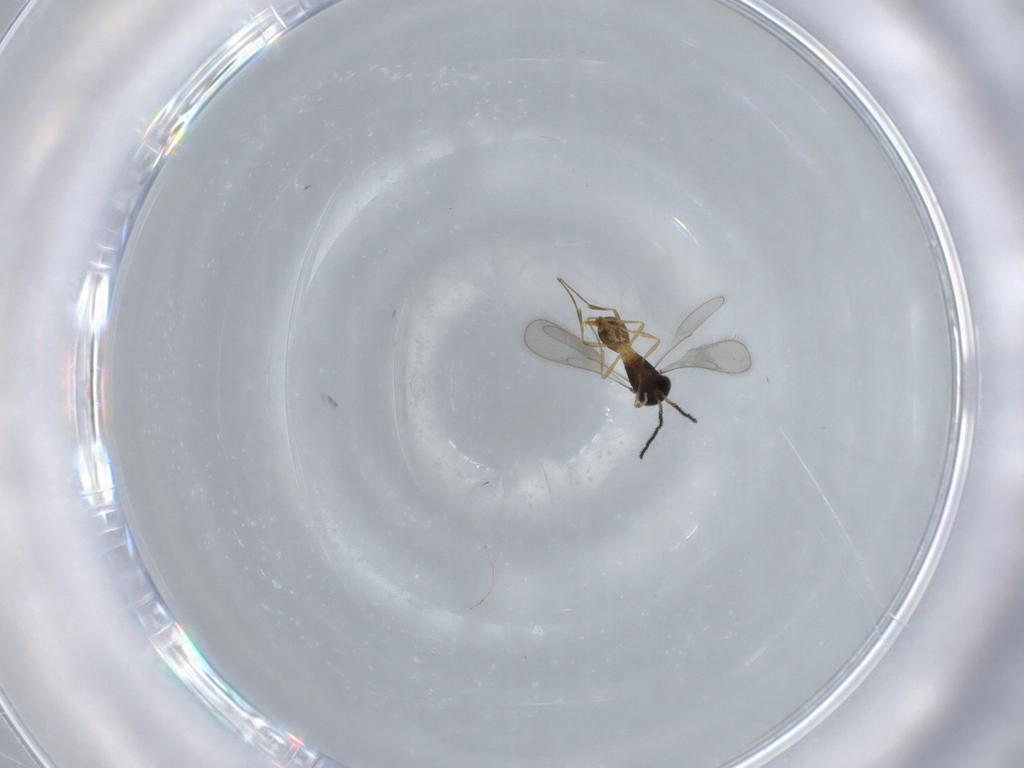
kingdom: Animalia
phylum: Arthropoda
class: Insecta
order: Hymenoptera
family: Scelionidae
